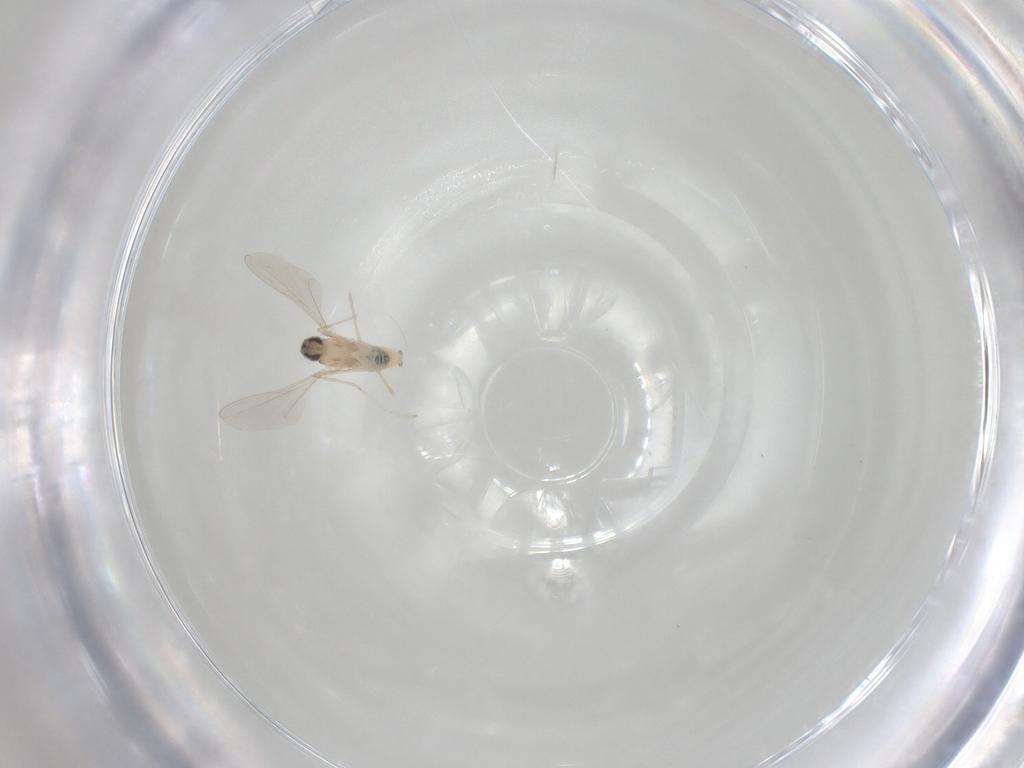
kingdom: Animalia
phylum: Arthropoda
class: Insecta
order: Diptera
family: Cecidomyiidae
